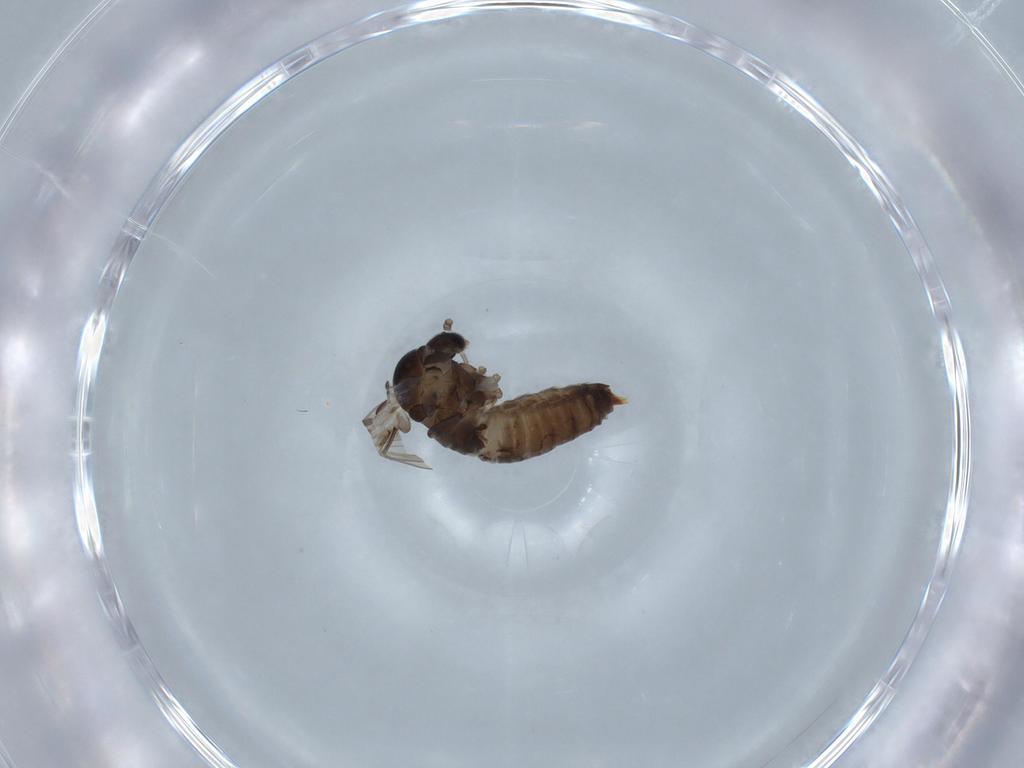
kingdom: Animalia
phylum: Arthropoda
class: Insecta
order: Diptera
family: Psychodidae
